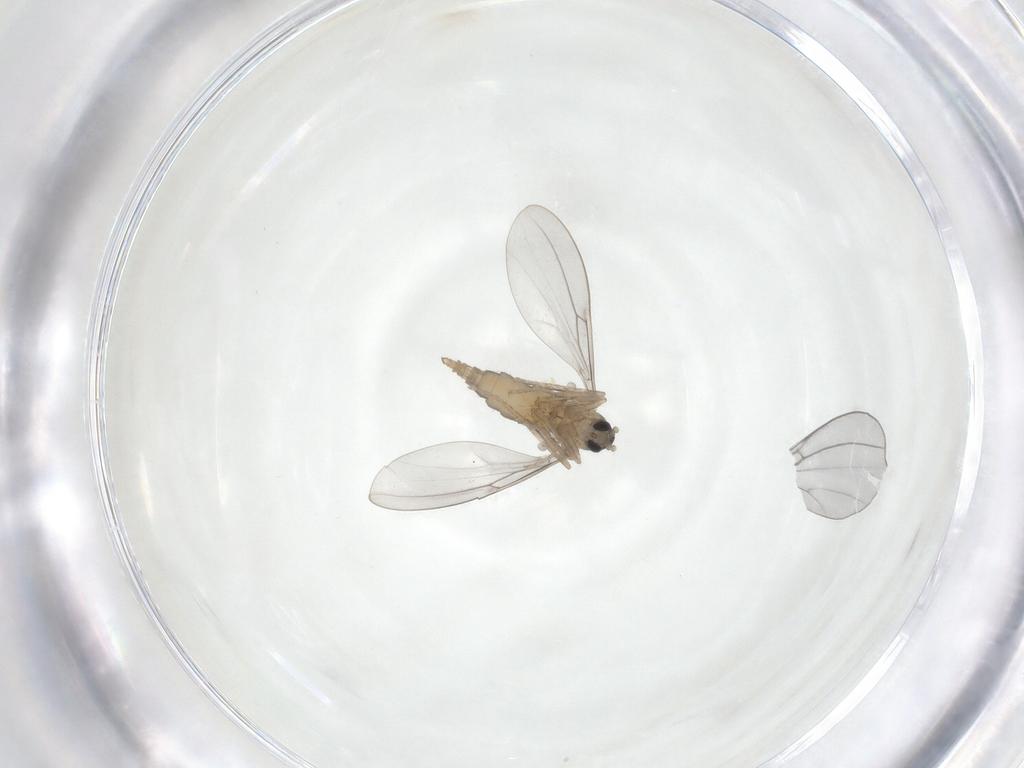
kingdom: Animalia
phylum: Arthropoda
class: Insecta
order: Diptera
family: Cecidomyiidae
